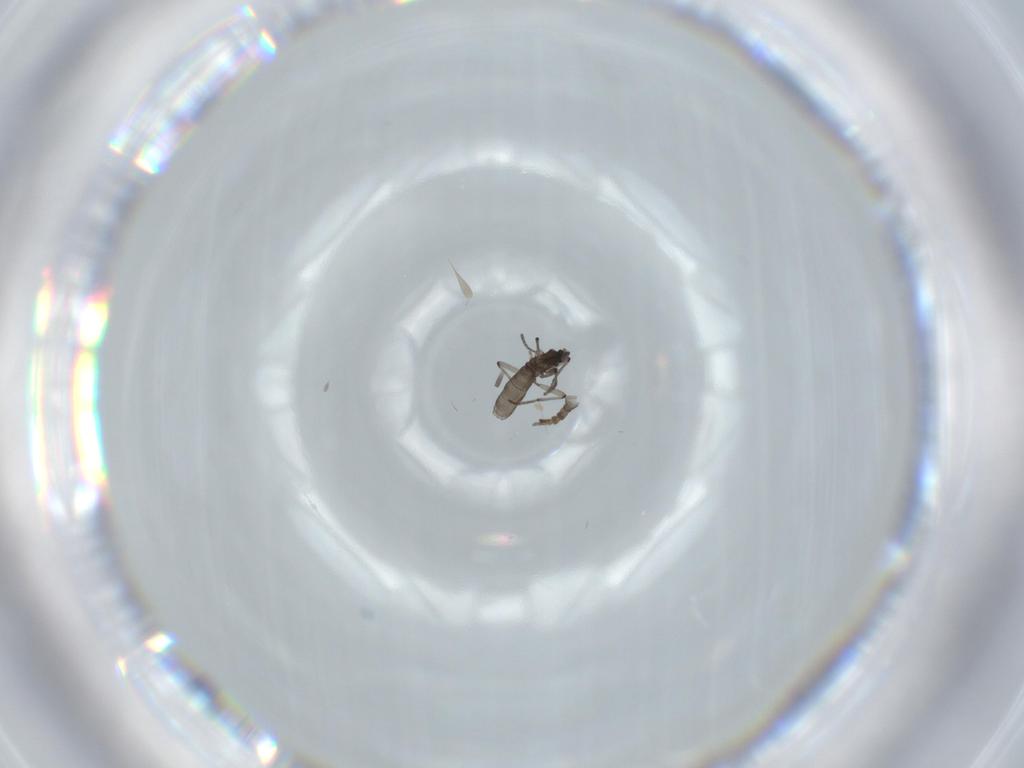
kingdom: Animalia
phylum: Arthropoda
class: Insecta
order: Diptera
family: Sciaridae
